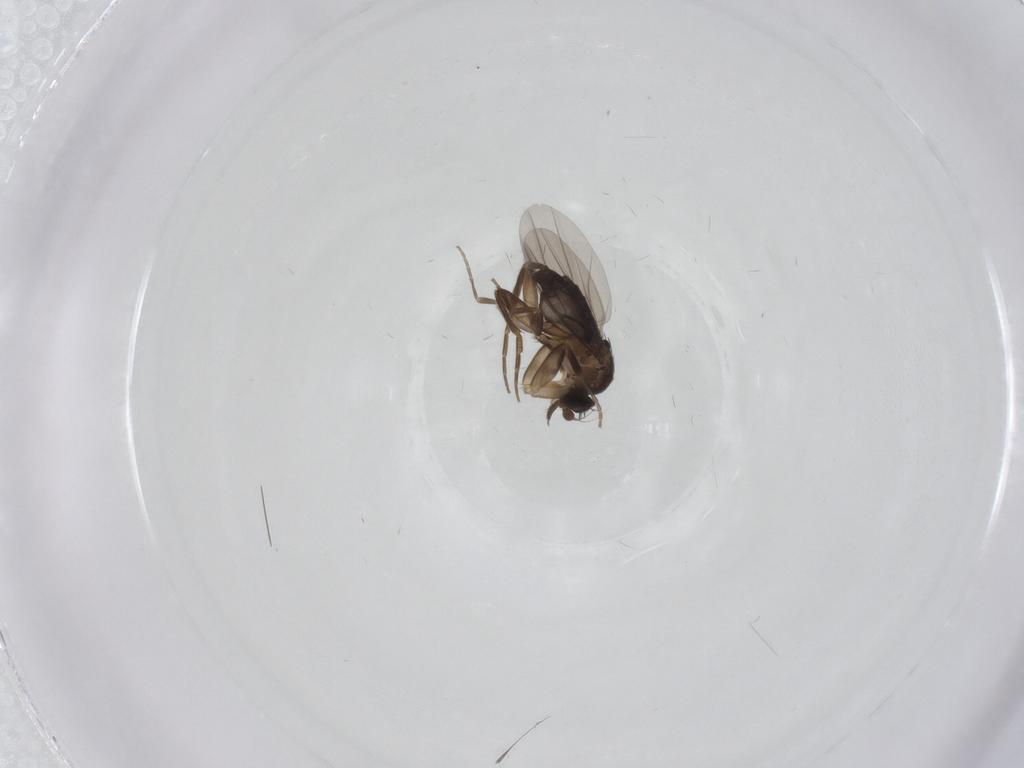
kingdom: Animalia
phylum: Arthropoda
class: Insecta
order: Diptera
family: Phoridae
